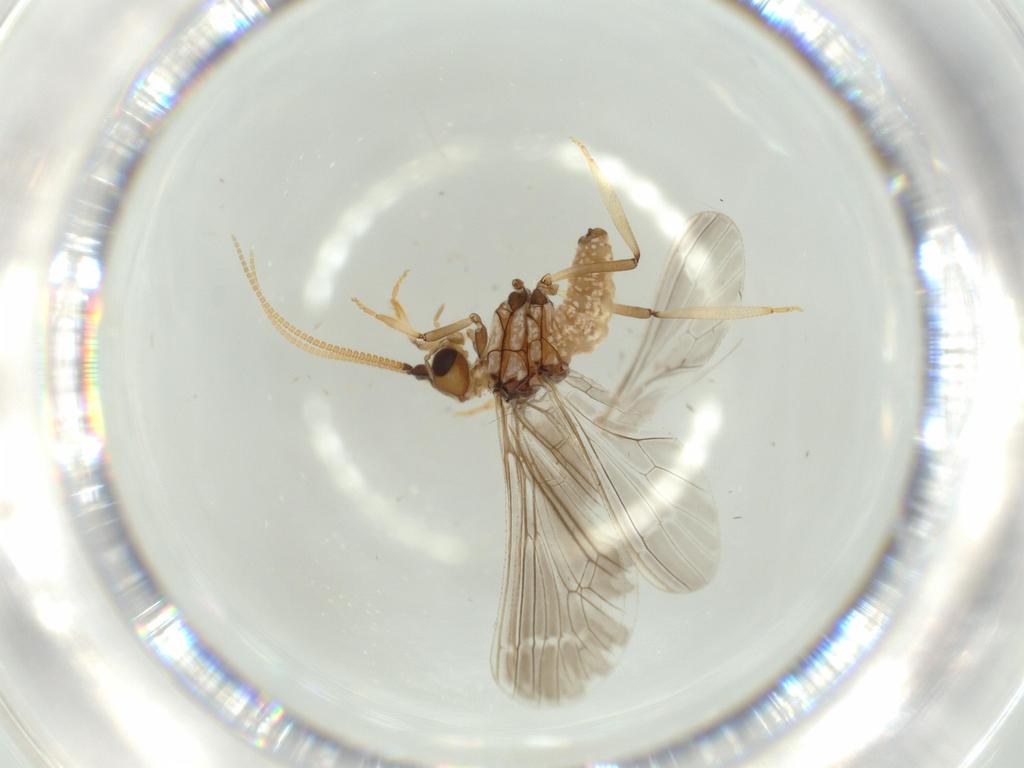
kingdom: Animalia
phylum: Arthropoda
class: Insecta
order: Neuroptera
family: Coniopterygidae
